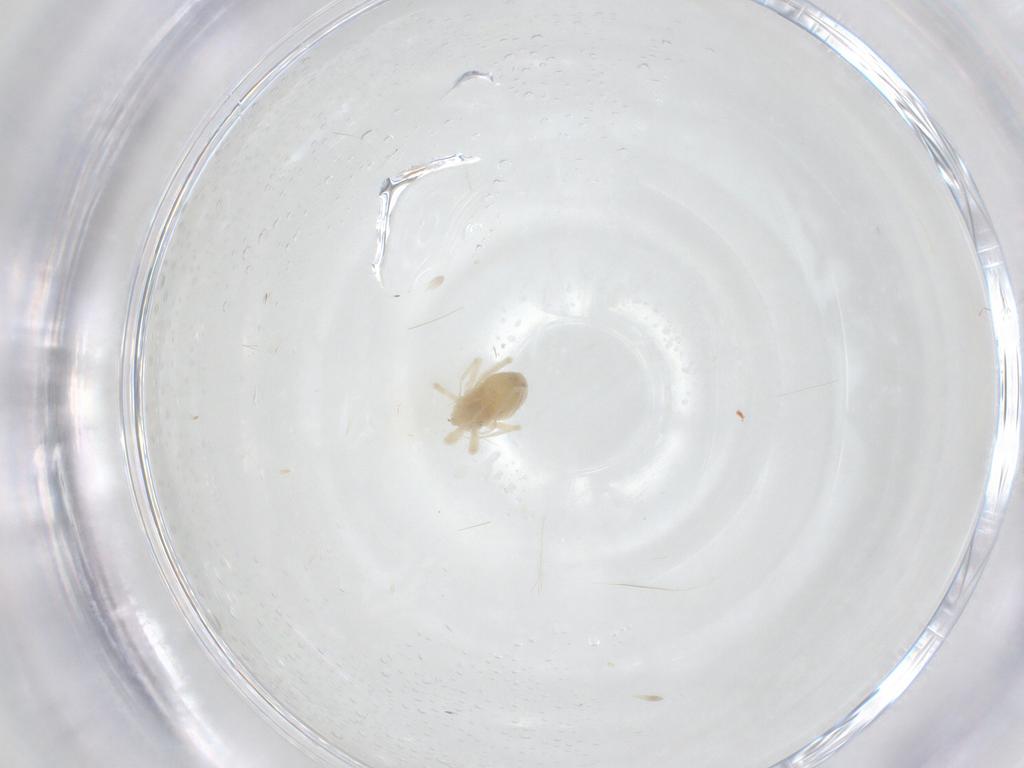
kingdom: Animalia
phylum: Arthropoda
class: Arachnida
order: Trombidiformes
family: Anystidae
